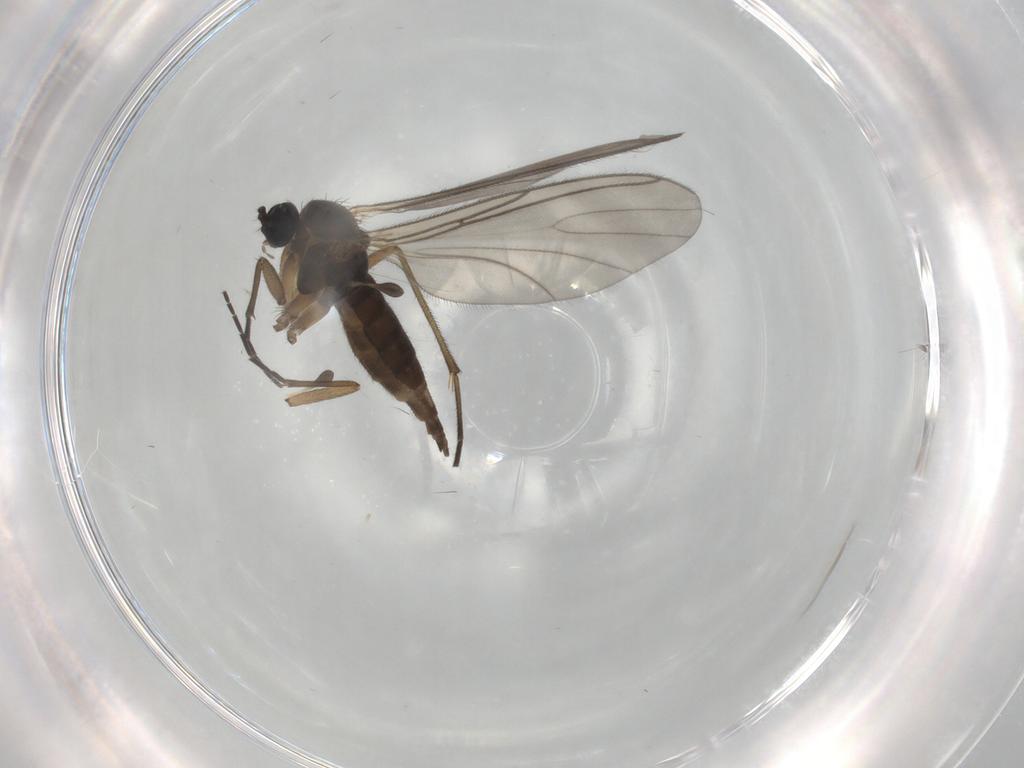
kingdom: Animalia
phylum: Arthropoda
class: Insecta
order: Diptera
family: Sciaridae
